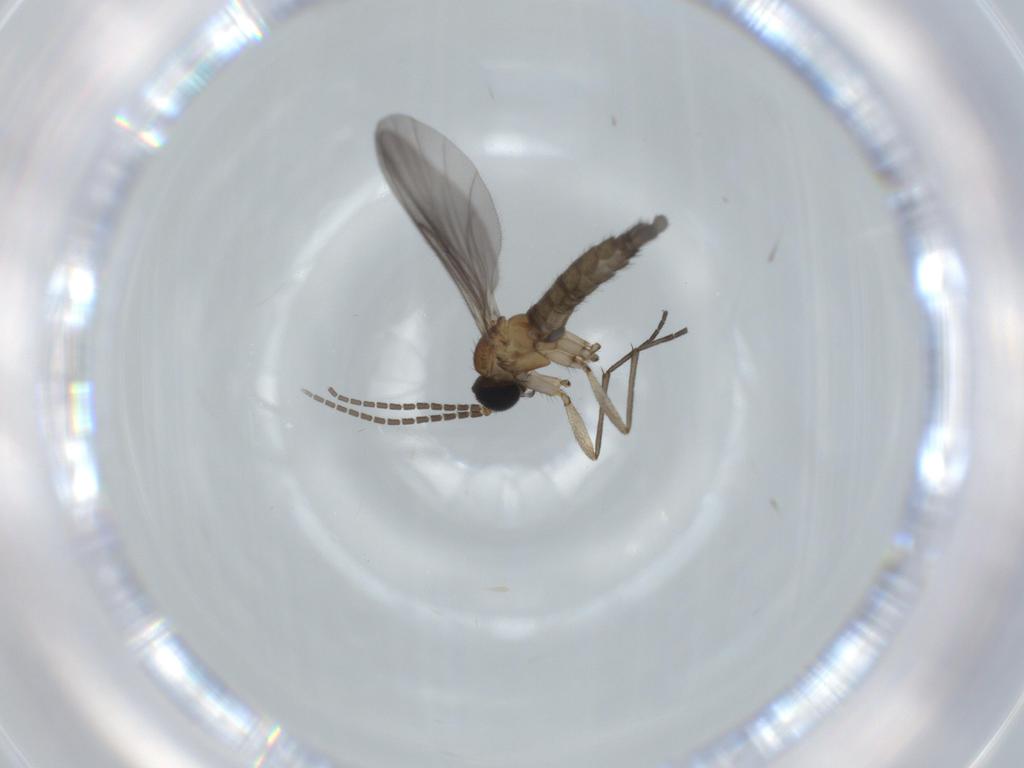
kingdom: Animalia
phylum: Arthropoda
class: Insecta
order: Diptera
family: Sciaridae
